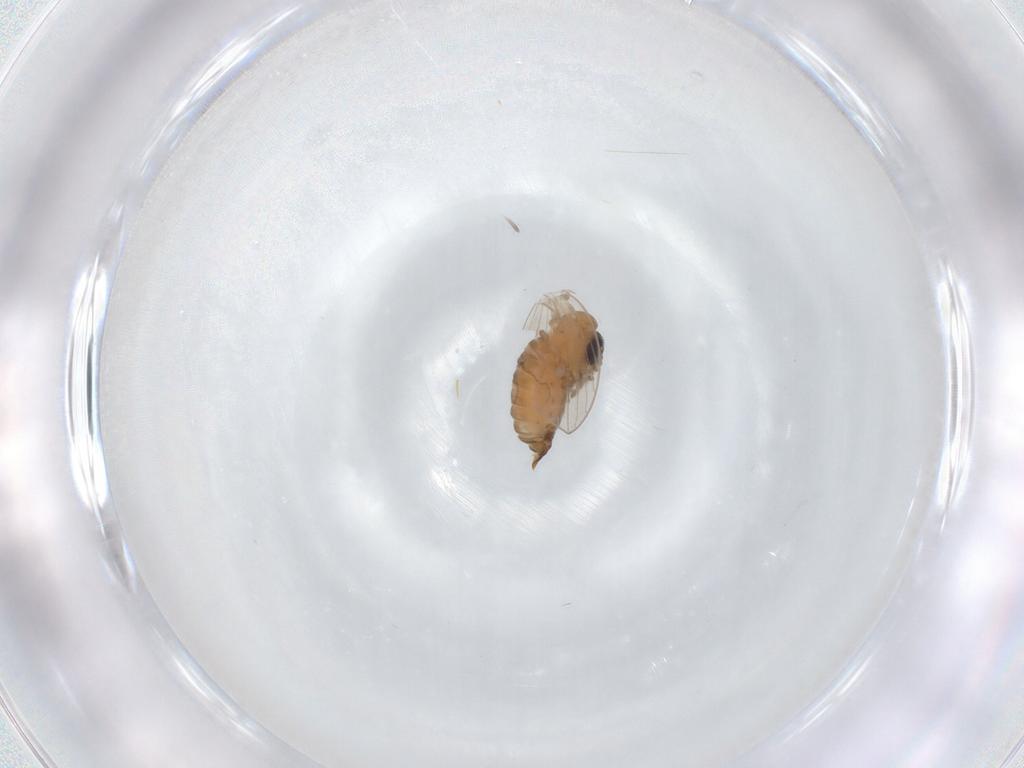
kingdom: Animalia
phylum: Arthropoda
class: Insecta
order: Diptera
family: Psychodidae
